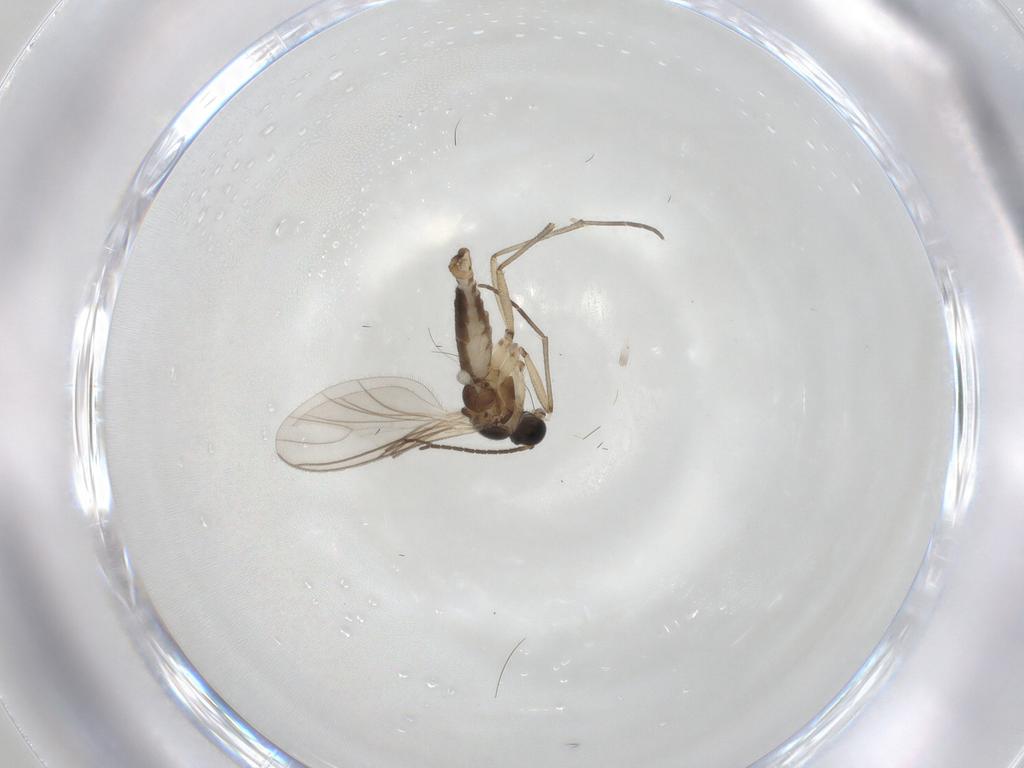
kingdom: Animalia
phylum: Arthropoda
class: Insecta
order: Diptera
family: Sciaridae
